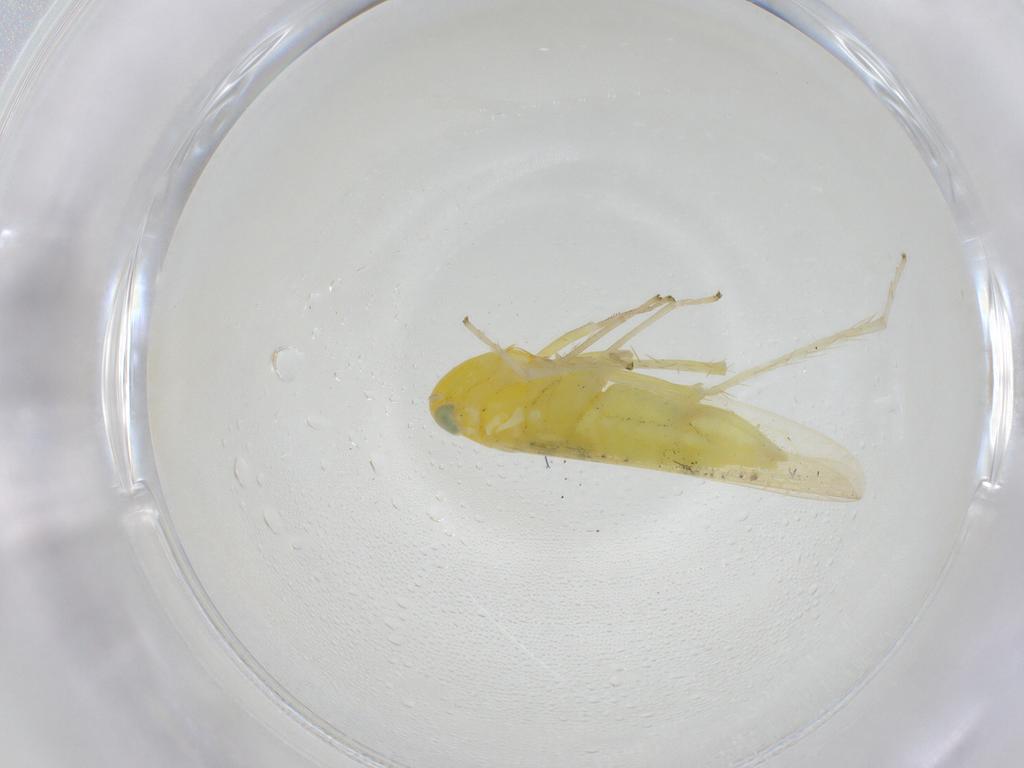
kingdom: Animalia
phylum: Arthropoda
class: Insecta
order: Hemiptera
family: Cicadellidae
